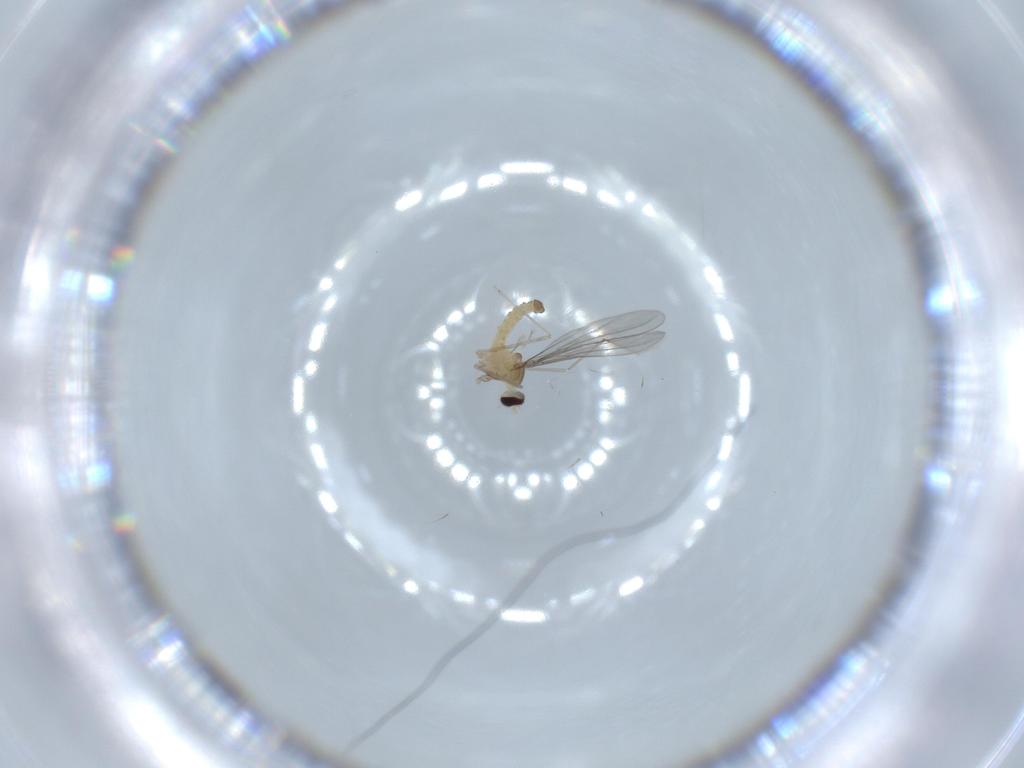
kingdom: Animalia
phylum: Arthropoda
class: Insecta
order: Diptera
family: Cecidomyiidae
